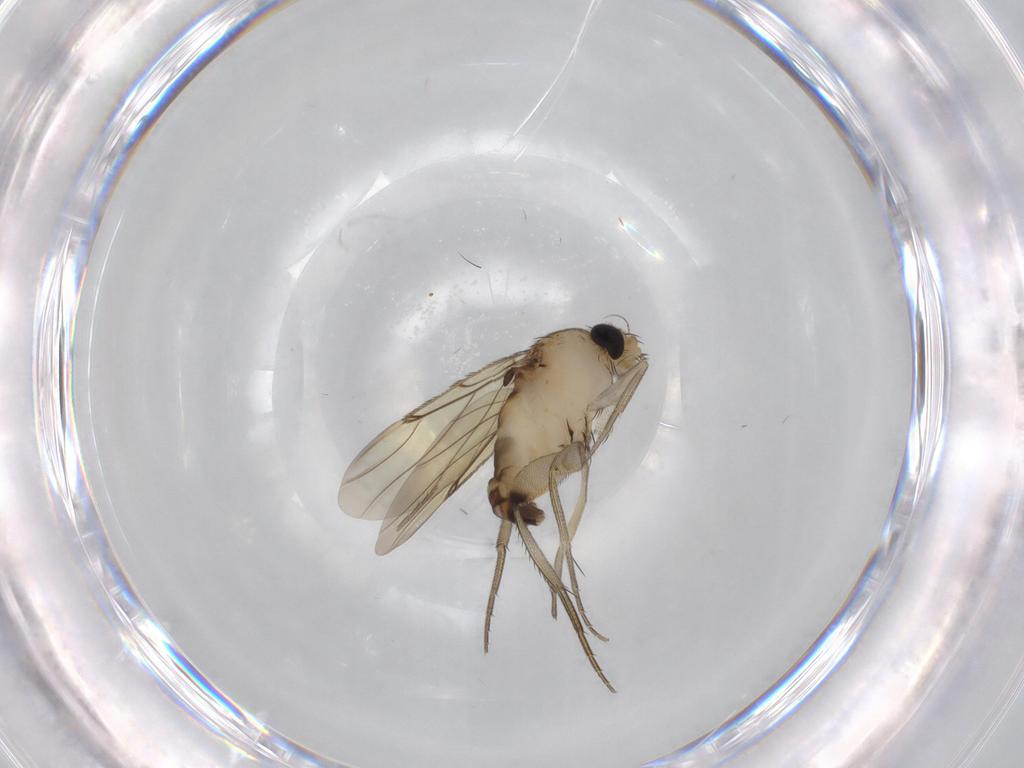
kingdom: Animalia
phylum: Arthropoda
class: Insecta
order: Diptera
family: Phoridae
